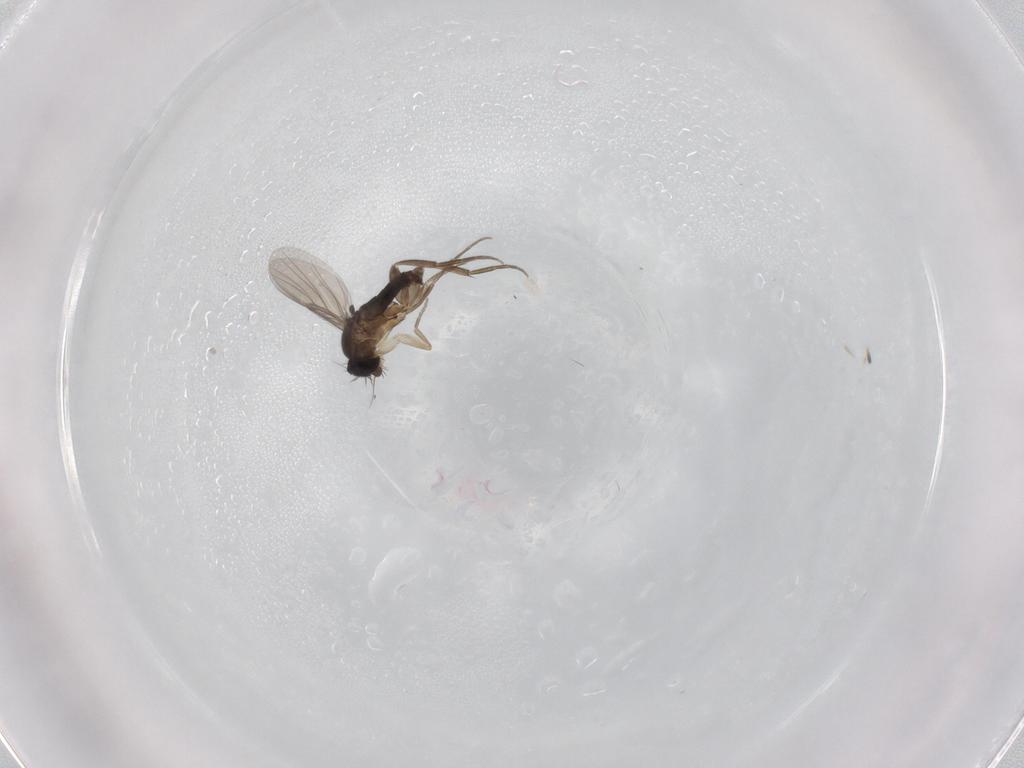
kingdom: Animalia
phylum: Arthropoda
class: Insecta
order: Diptera
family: Phoridae
